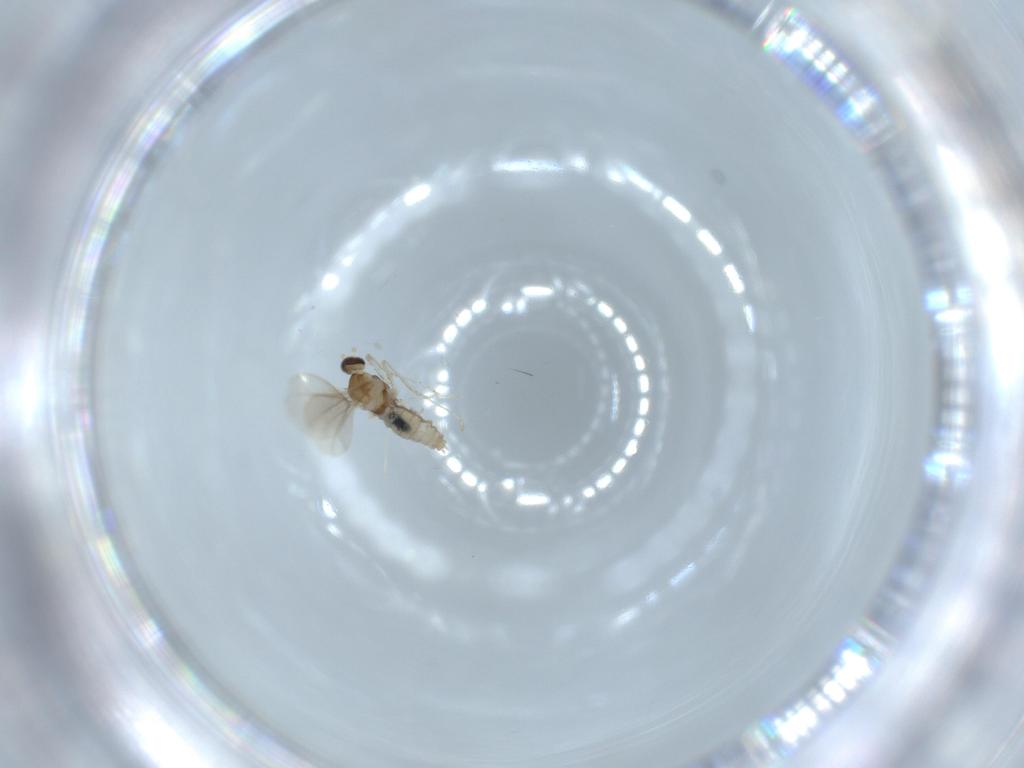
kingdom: Animalia
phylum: Arthropoda
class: Insecta
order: Diptera
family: Cecidomyiidae
